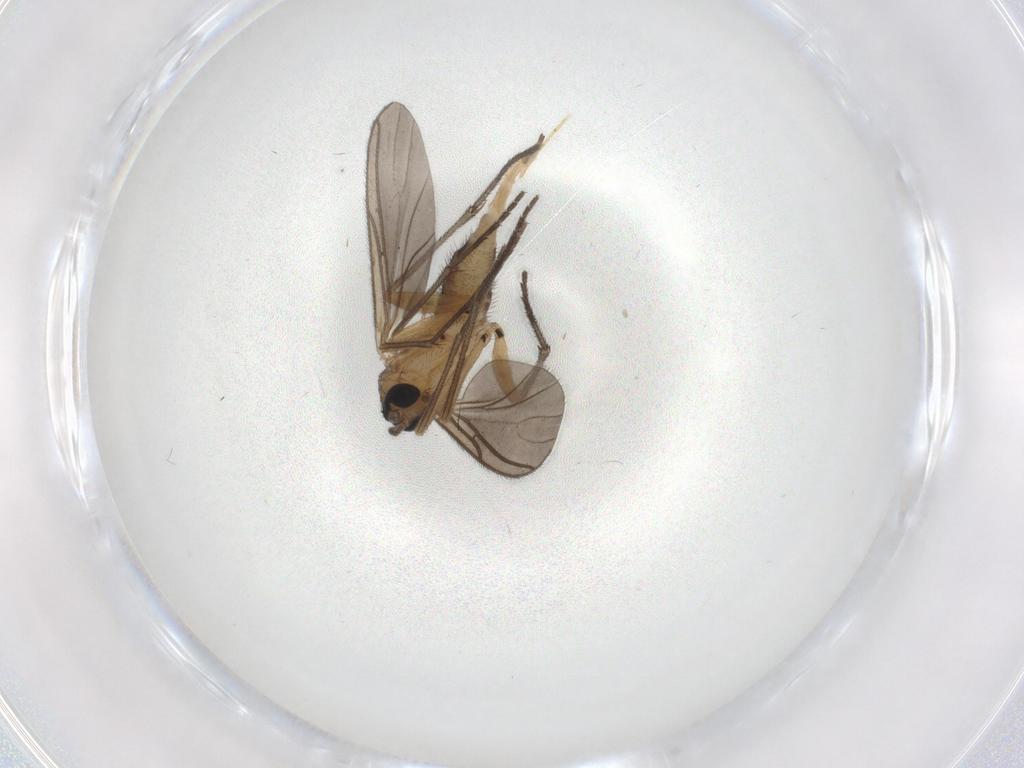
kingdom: Animalia
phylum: Arthropoda
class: Insecta
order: Diptera
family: Sciaridae
